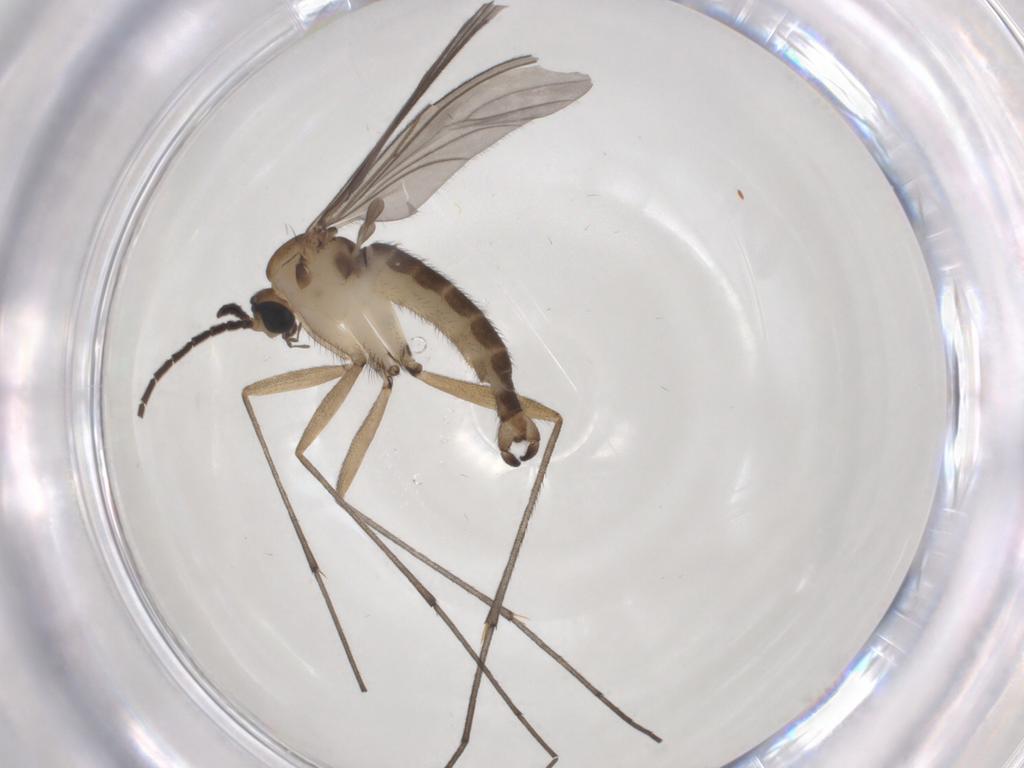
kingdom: Animalia
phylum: Arthropoda
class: Insecta
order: Diptera
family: Sciaridae
